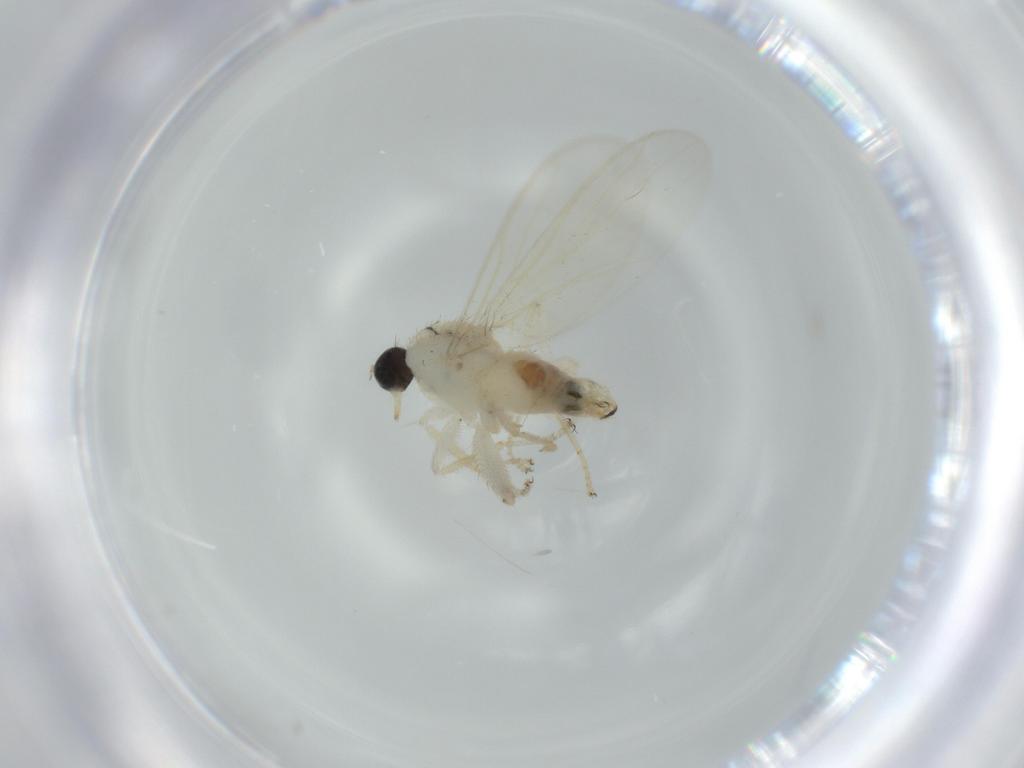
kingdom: Animalia
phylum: Arthropoda
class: Insecta
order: Diptera
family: Hybotidae
